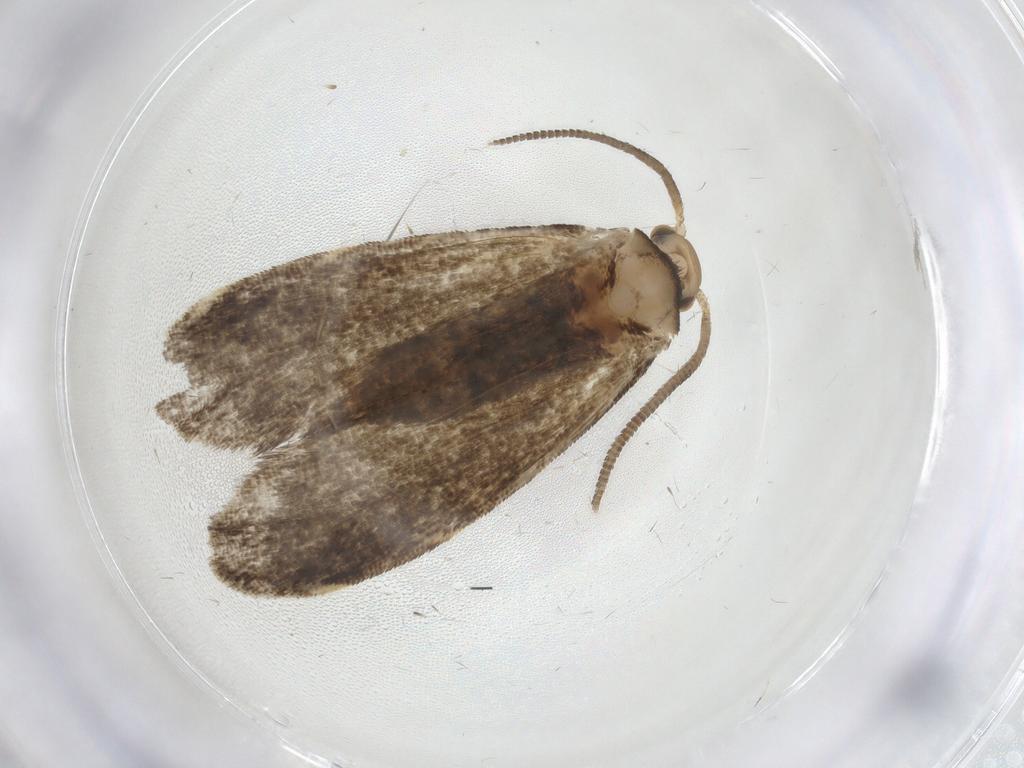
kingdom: Animalia
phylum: Arthropoda
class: Insecta
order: Lepidoptera
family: Dryadaulidae
